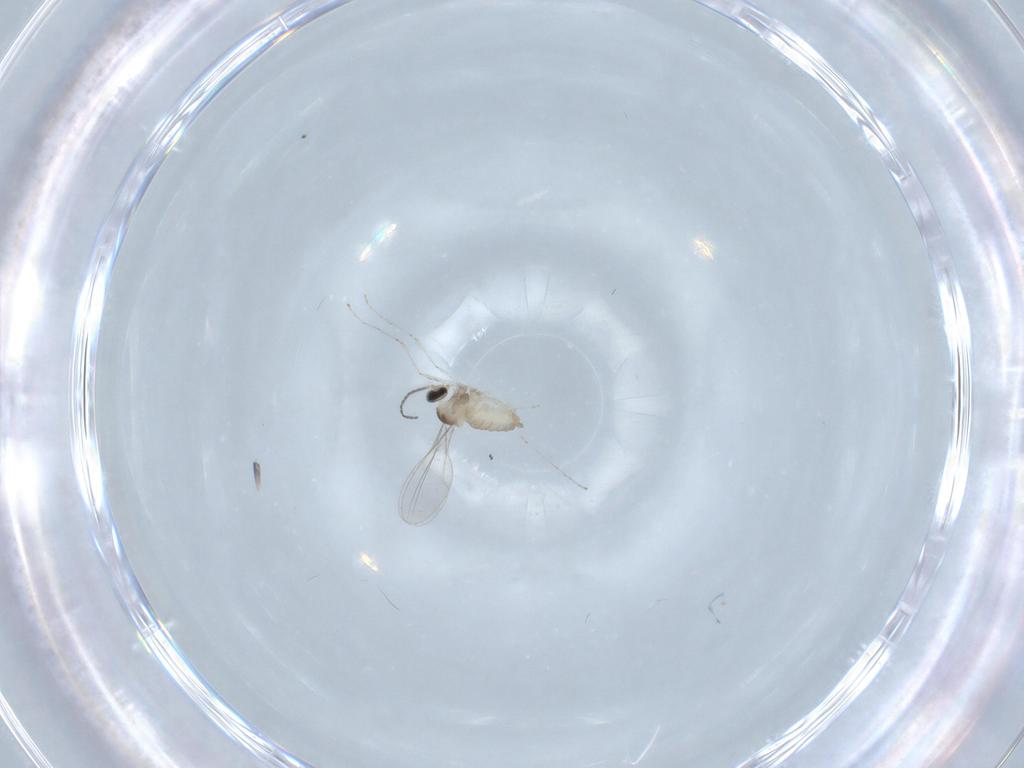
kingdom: Animalia
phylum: Arthropoda
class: Insecta
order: Diptera
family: Cecidomyiidae
